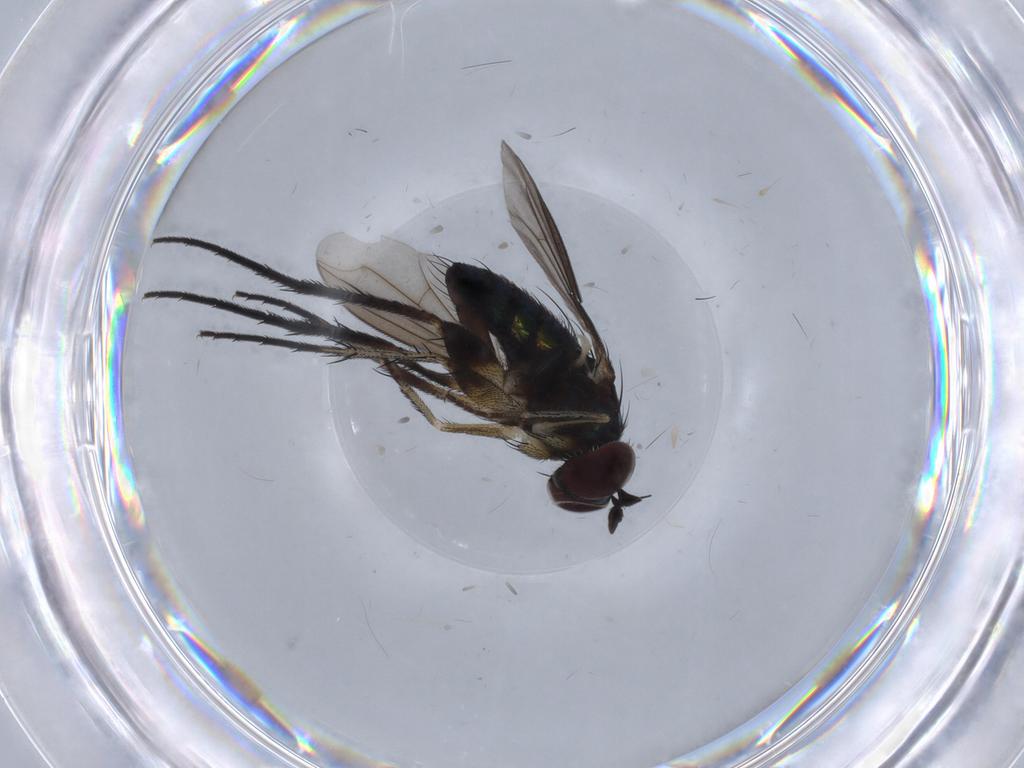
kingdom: Animalia
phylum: Arthropoda
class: Insecta
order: Diptera
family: Dolichopodidae
